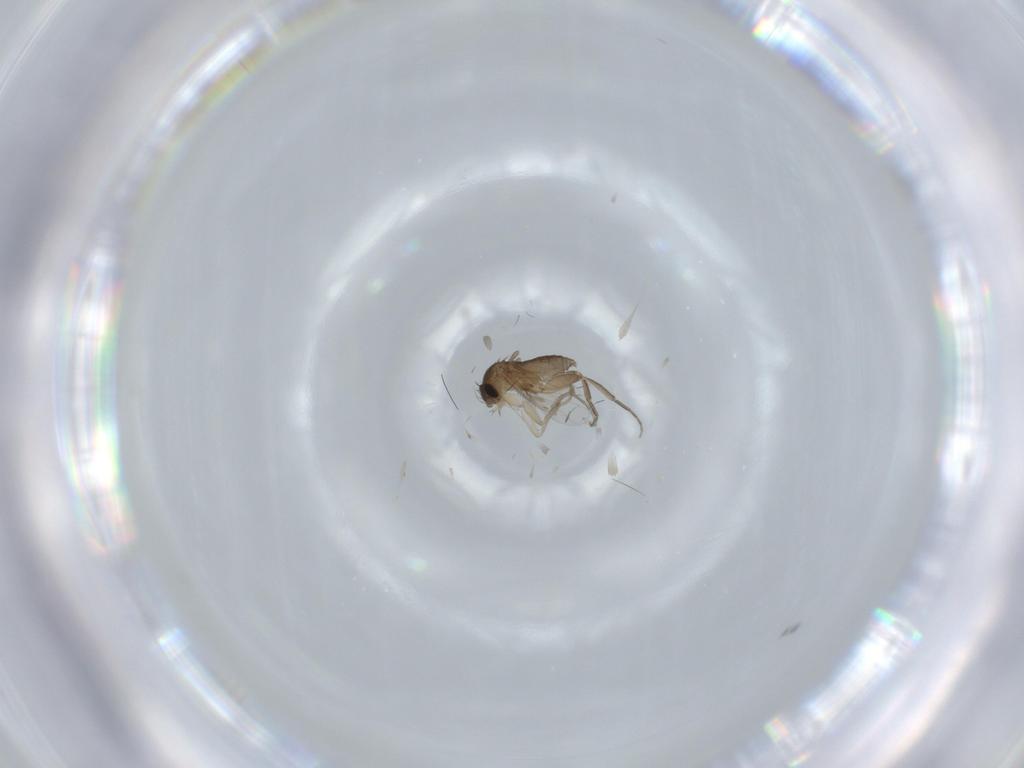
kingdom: Animalia
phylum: Arthropoda
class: Insecta
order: Diptera
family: Phoridae
